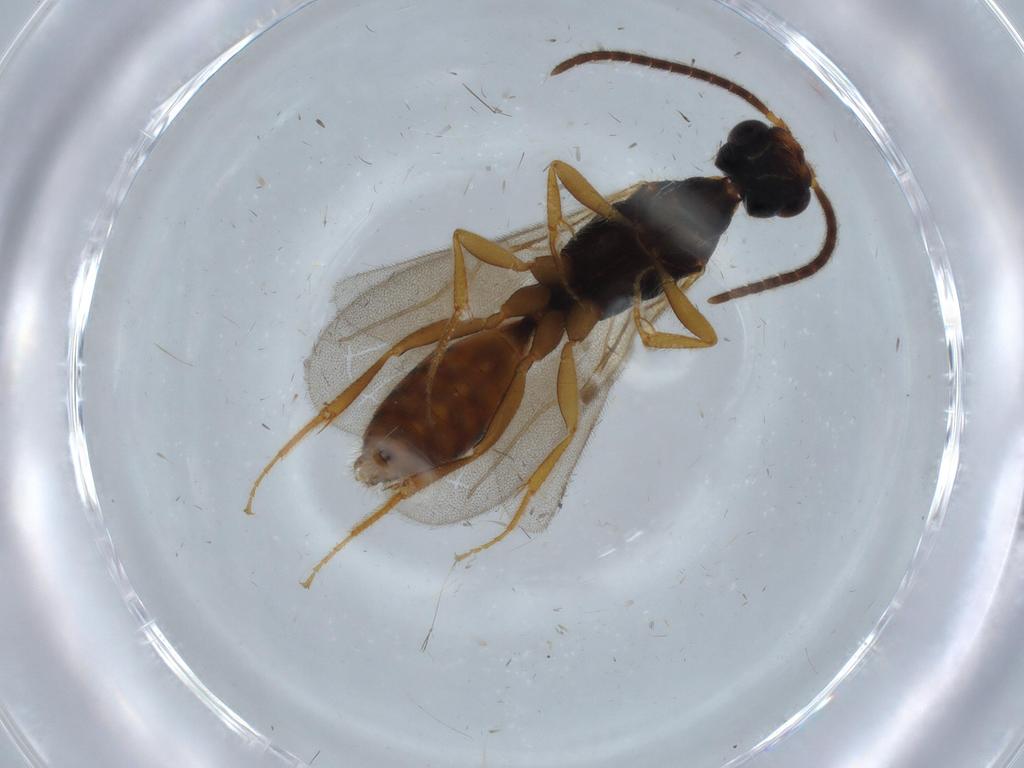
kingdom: Animalia
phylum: Arthropoda
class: Insecta
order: Hymenoptera
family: Bethylidae
